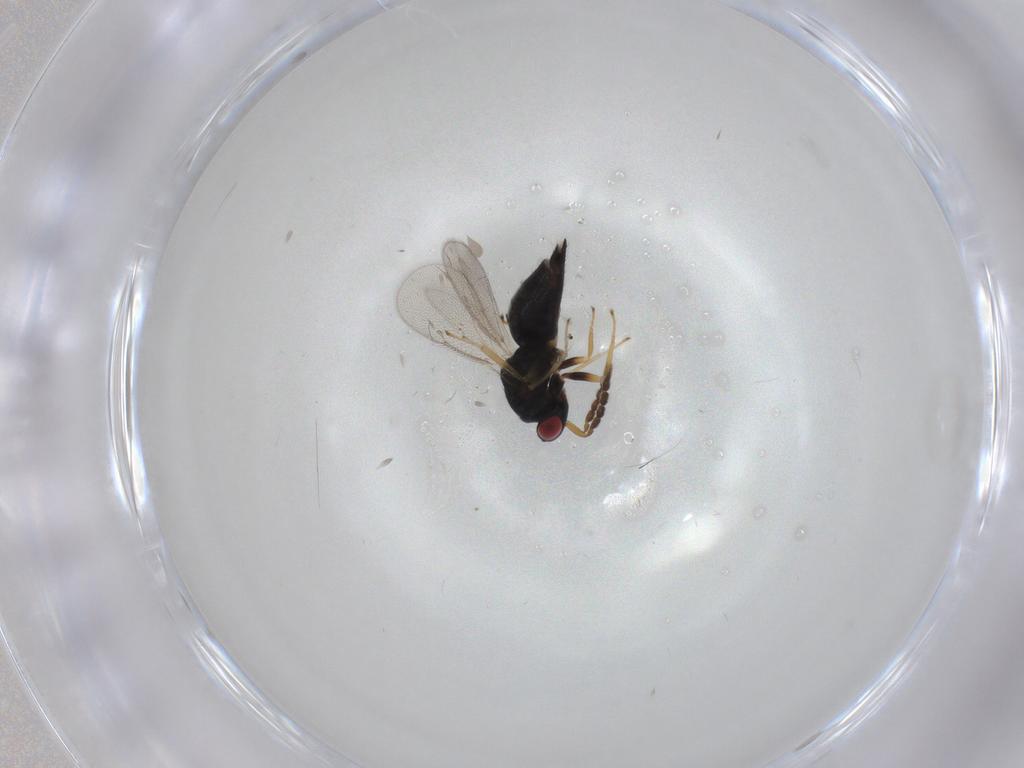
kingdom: Animalia
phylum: Arthropoda
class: Insecta
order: Hymenoptera
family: Eulophidae
